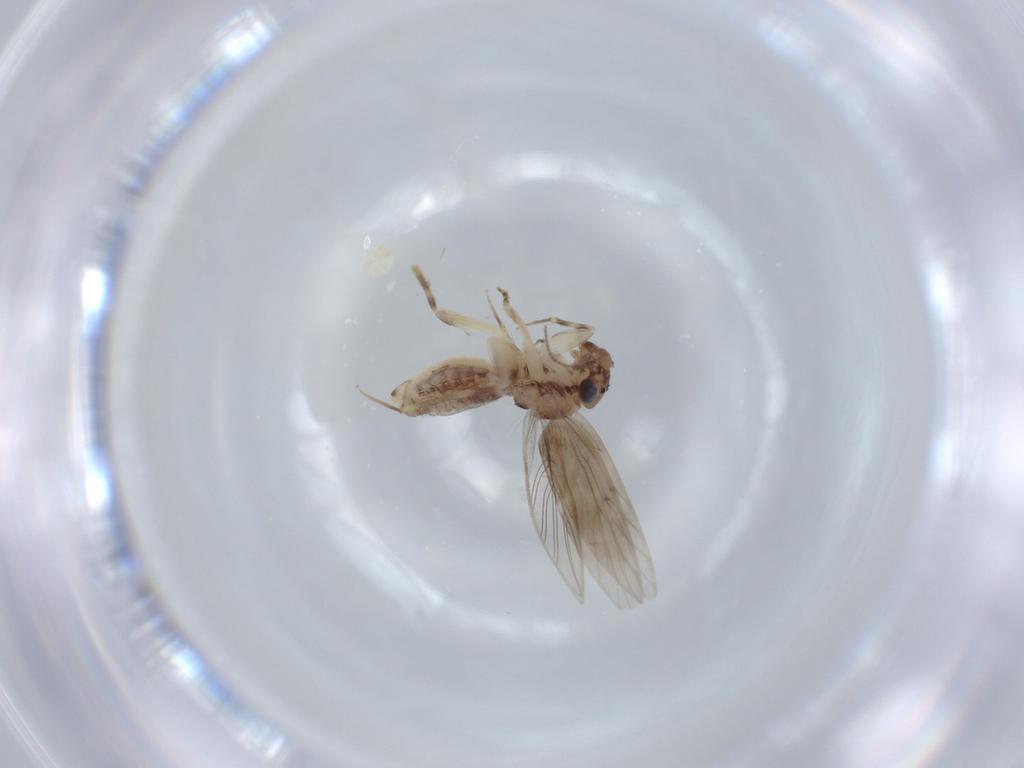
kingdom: Animalia
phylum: Arthropoda
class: Insecta
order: Psocodea
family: Lepidopsocidae
